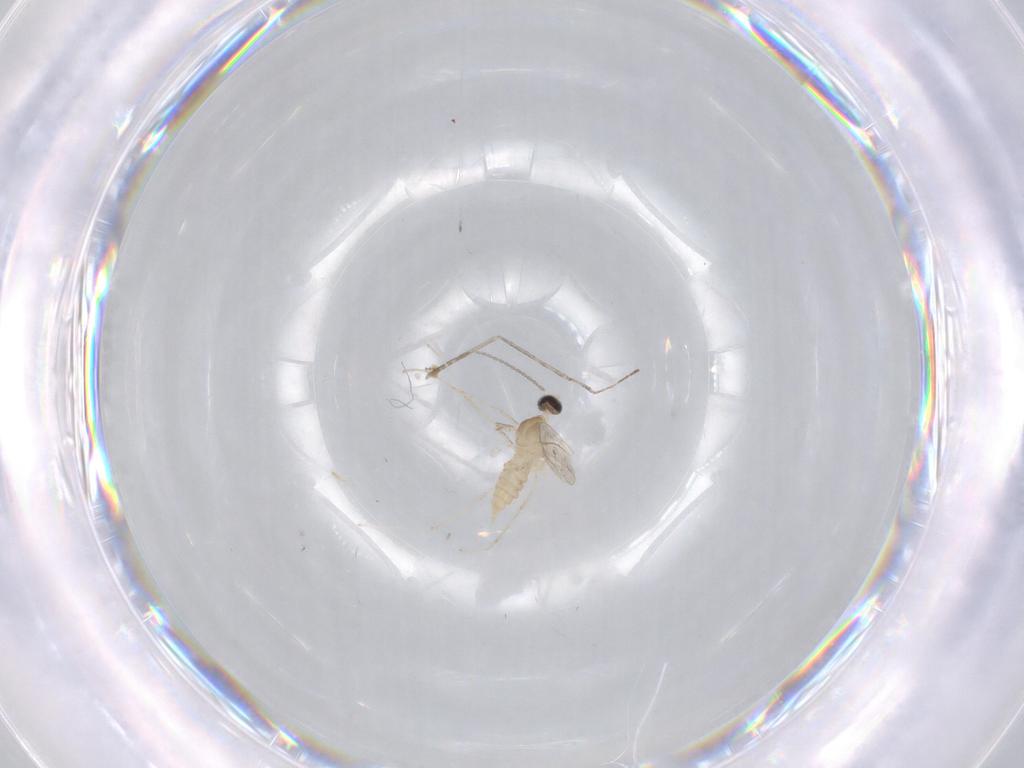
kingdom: Animalia
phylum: Arthropoda
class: Insecta
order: Diptera
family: Cecidomyiidae
